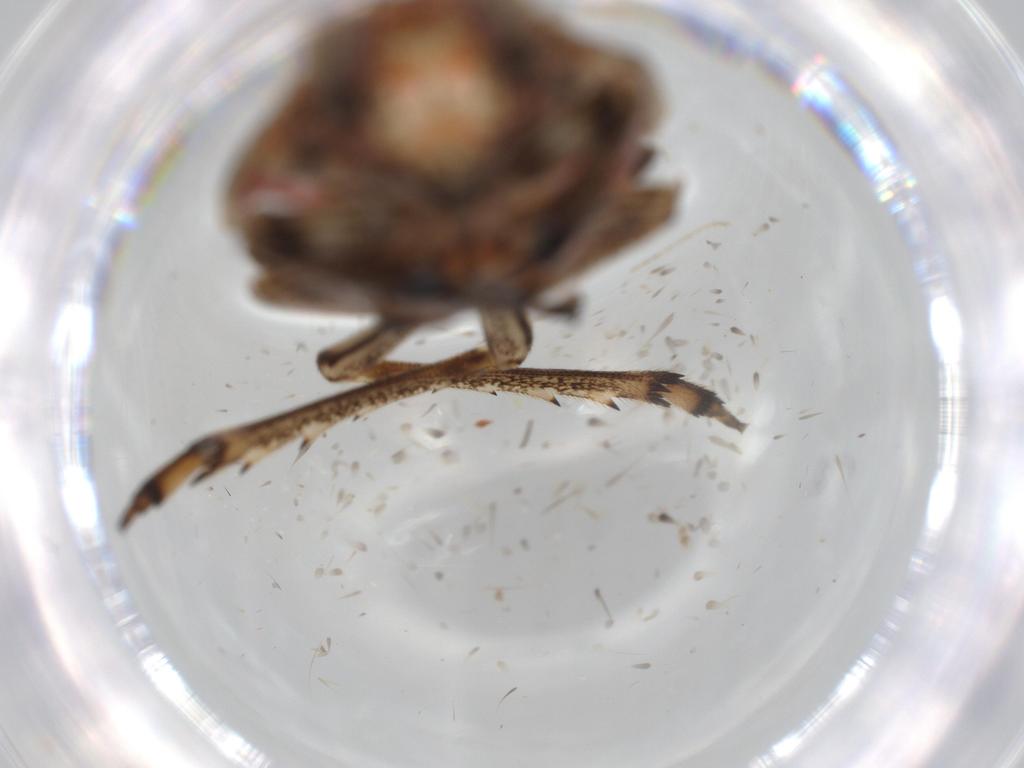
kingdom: Animalia
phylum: Arthropoda
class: Insecta
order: Hemiptera
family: Issidae
